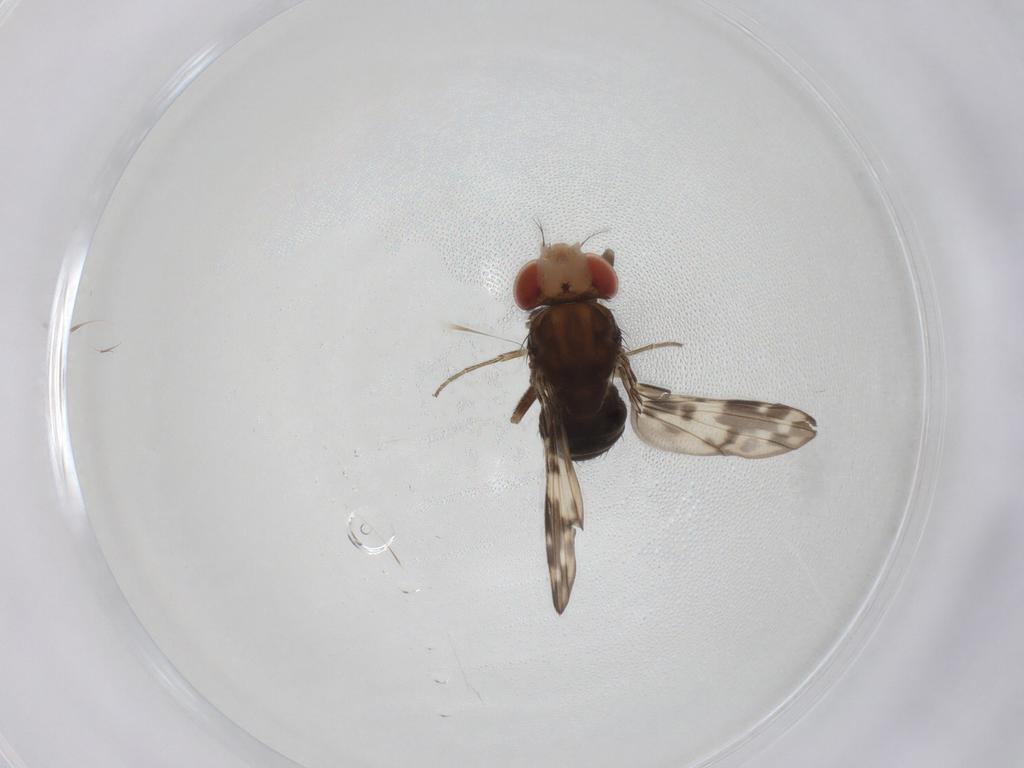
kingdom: Animalia
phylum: Arthropoda
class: Insecta
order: Diptera
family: Drosophilidae
